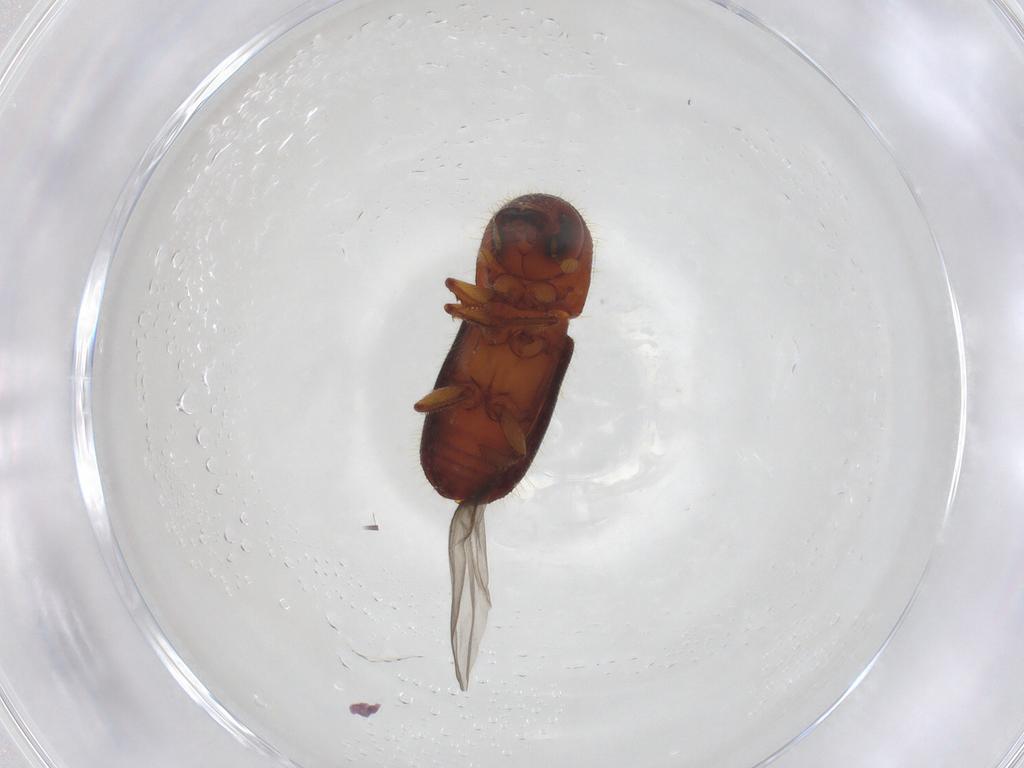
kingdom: Animalia
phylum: Arthropoda
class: Insecta
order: Coleoptera
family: Curculionidae
